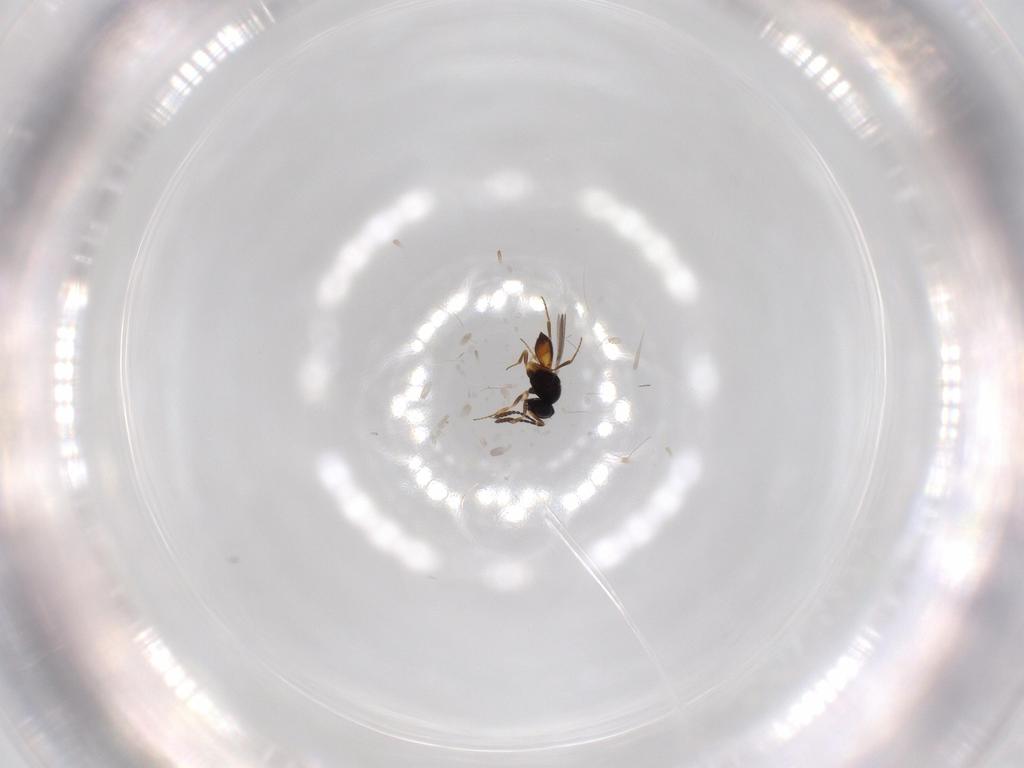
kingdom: Animalia
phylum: Arthropoda
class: Insecta
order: Hymenoptera
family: Scelionidae
